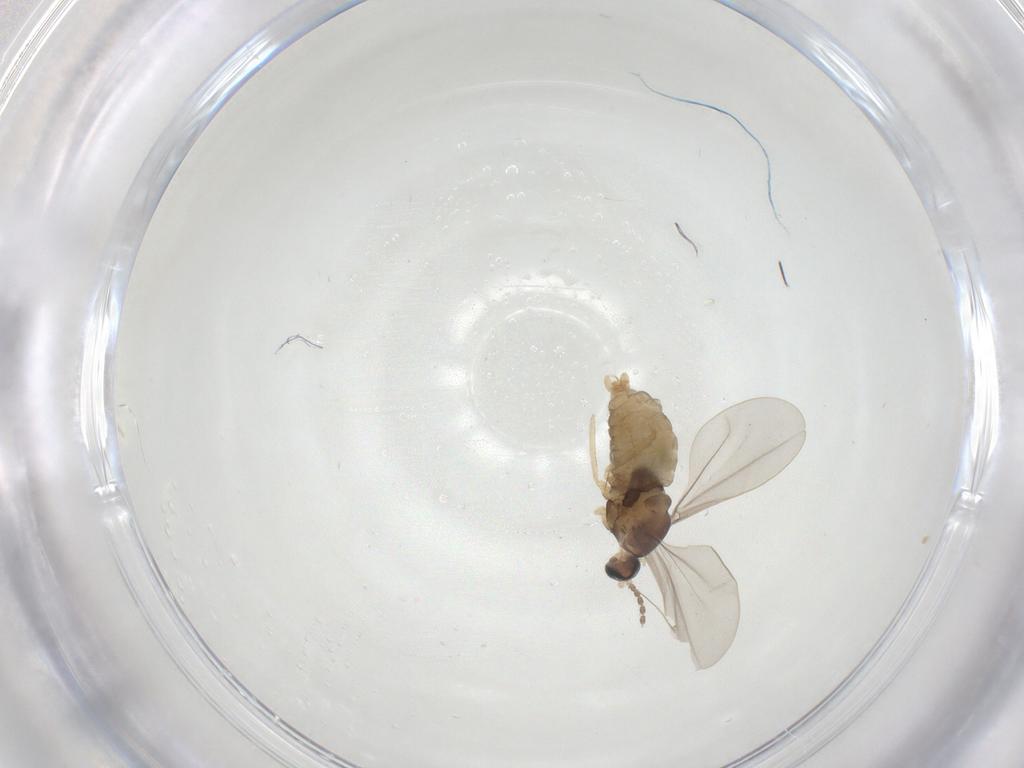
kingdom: Animalia
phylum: Arthropoda
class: Insecta
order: Diptera
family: Cecidomyiidae
